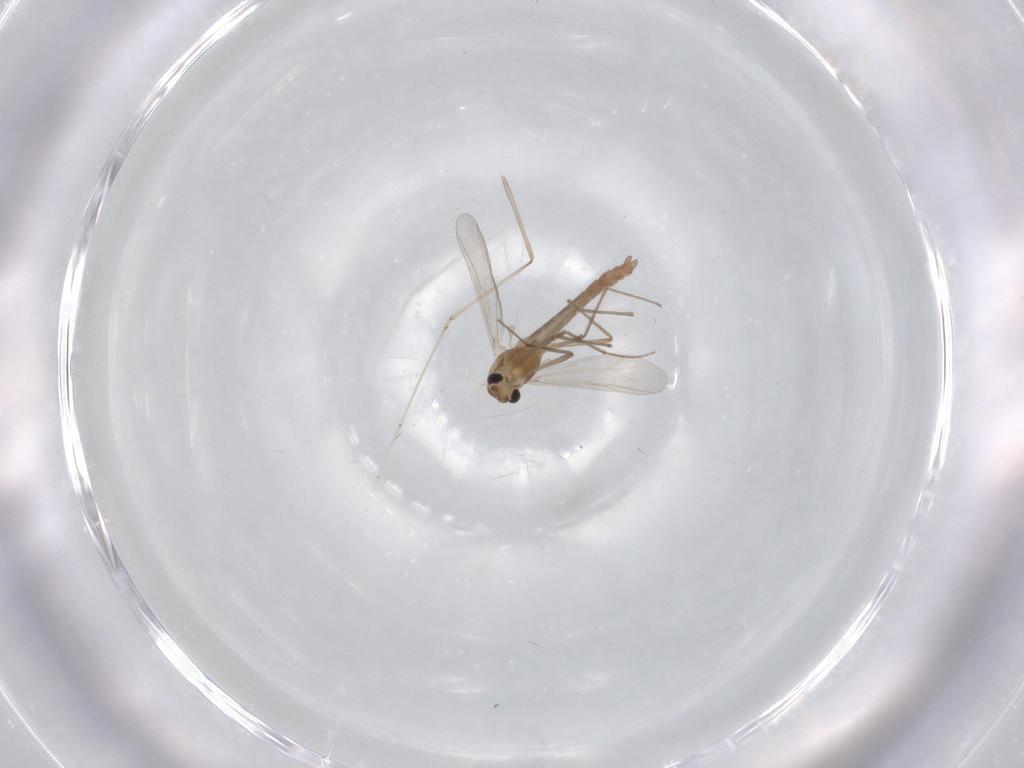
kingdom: Animalia
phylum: Arthropoda
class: Insecta
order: Diptera
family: Chironomidae
